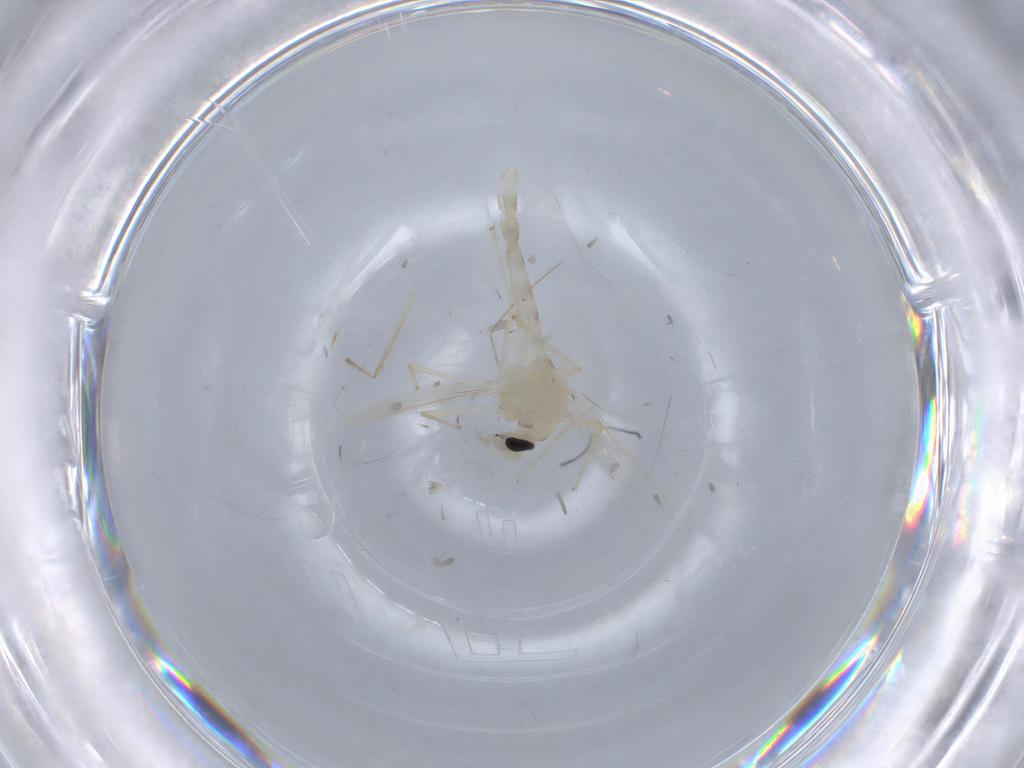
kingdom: Animalia
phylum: Arthropoda
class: Insecta
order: Diptera
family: Chironomidae
